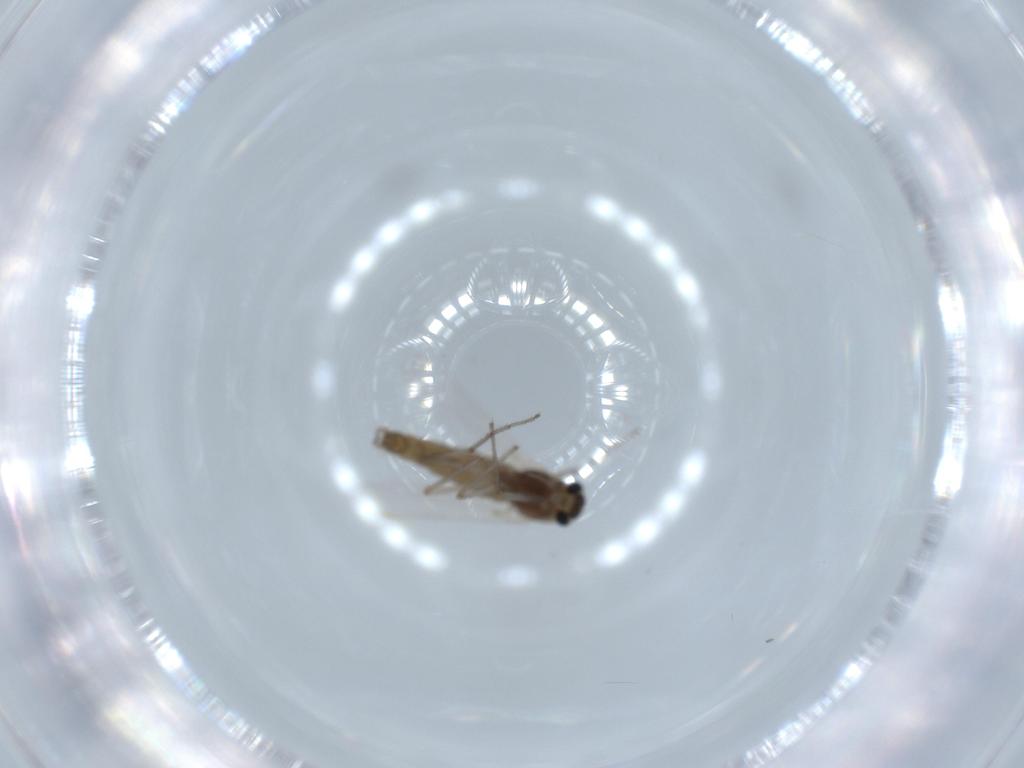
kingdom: Animalia
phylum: Arthropoda
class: Insecta
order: Diptera
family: Chironomidae
